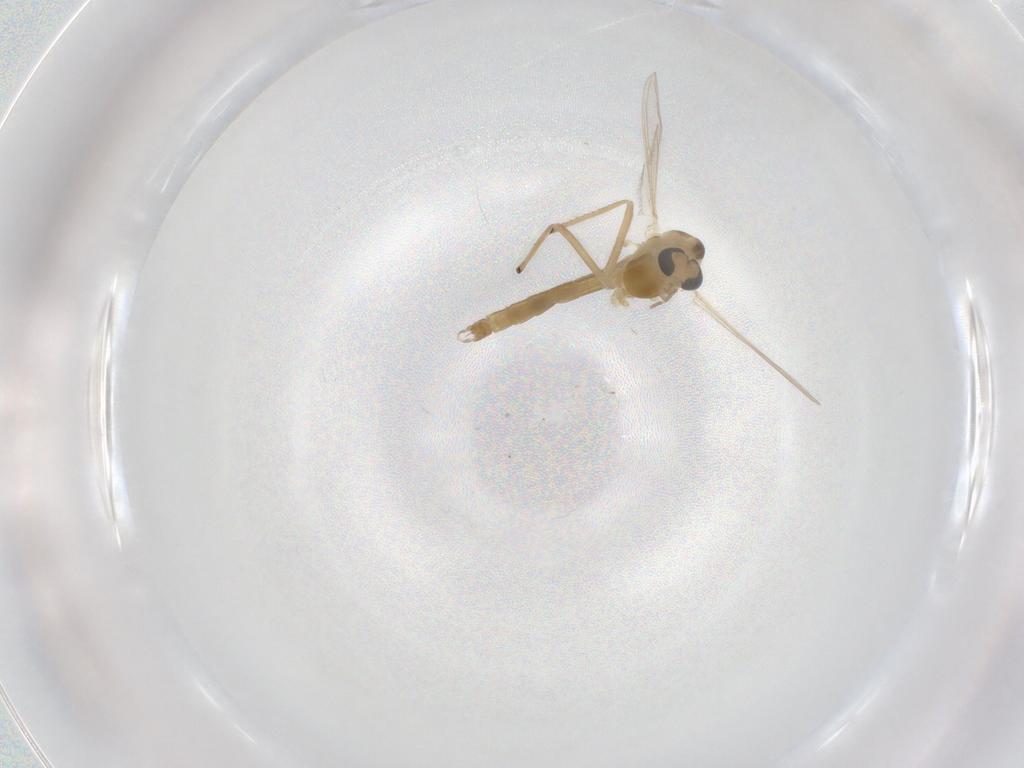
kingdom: Animalia
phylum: Arthropoda
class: Insecta
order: Diptera
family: Chironomidae
